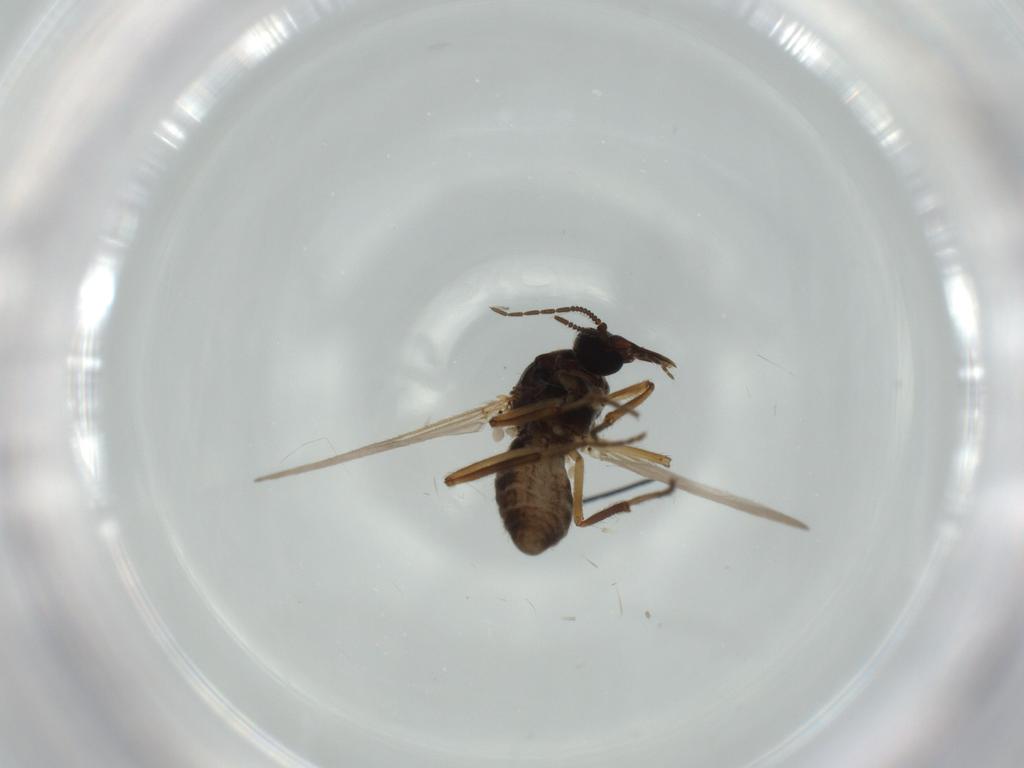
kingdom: Animalia
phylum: Arthropoda
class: Insecta
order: Diptera
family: Ceratopogonidae
